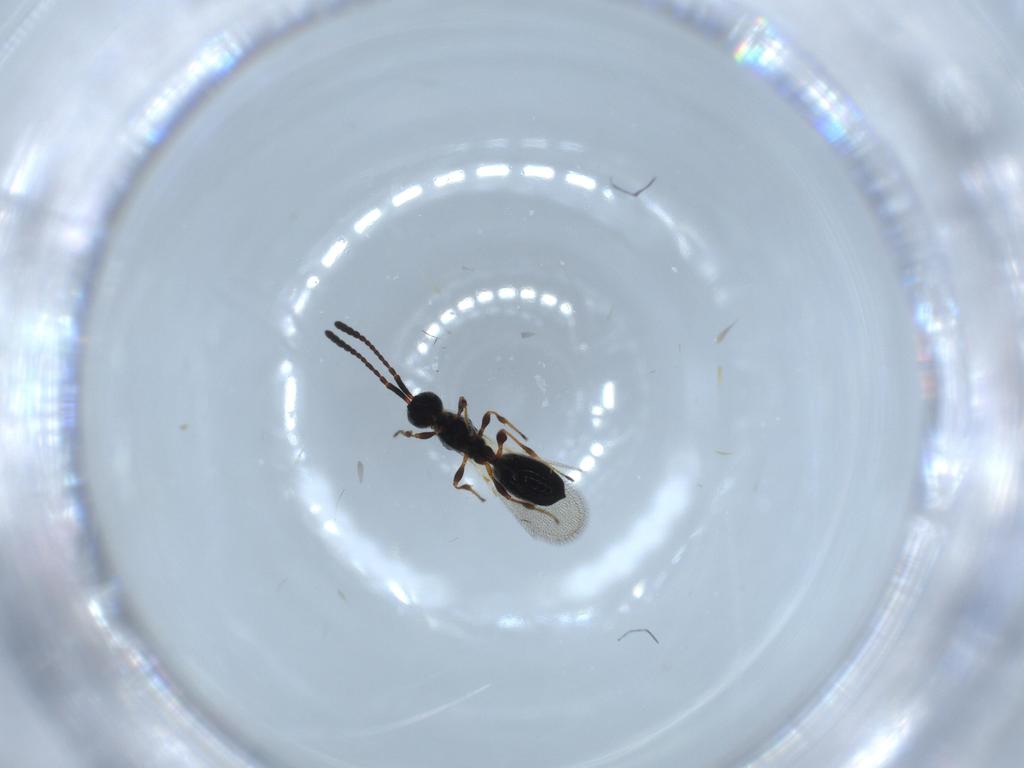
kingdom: Animalia
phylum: Arthropoda
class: Insecta
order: Hymenoptera
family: Diapriidae
